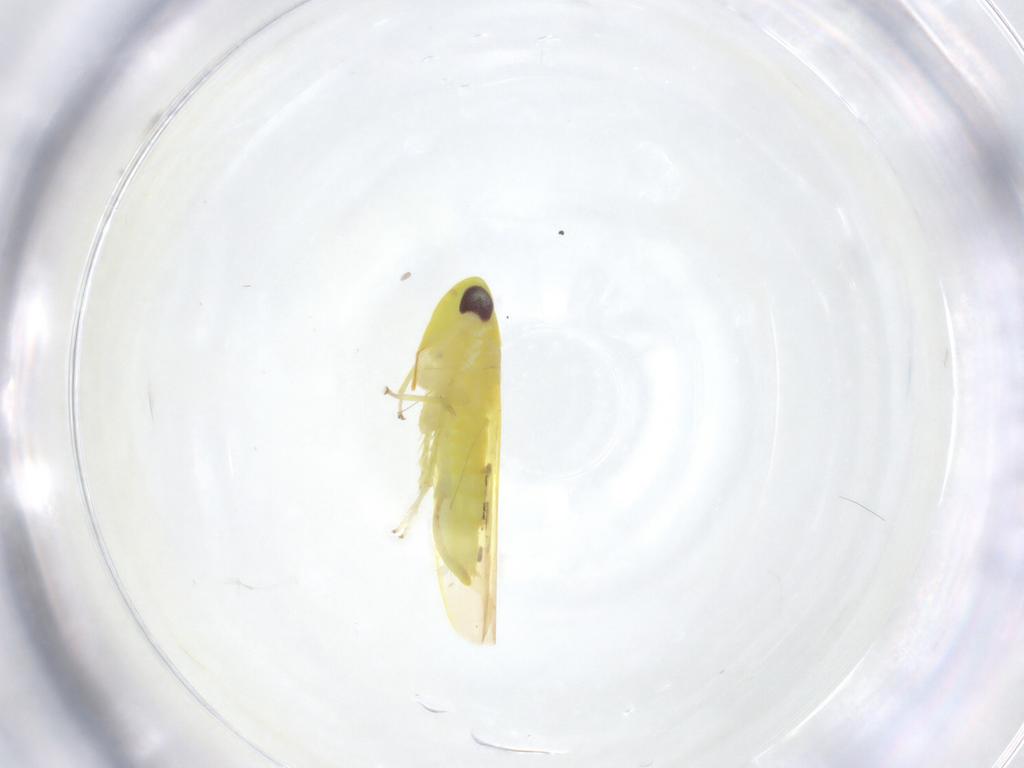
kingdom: Animalia
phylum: Arthropoda
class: Insecta
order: Hemiptera
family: Cicadellidae
